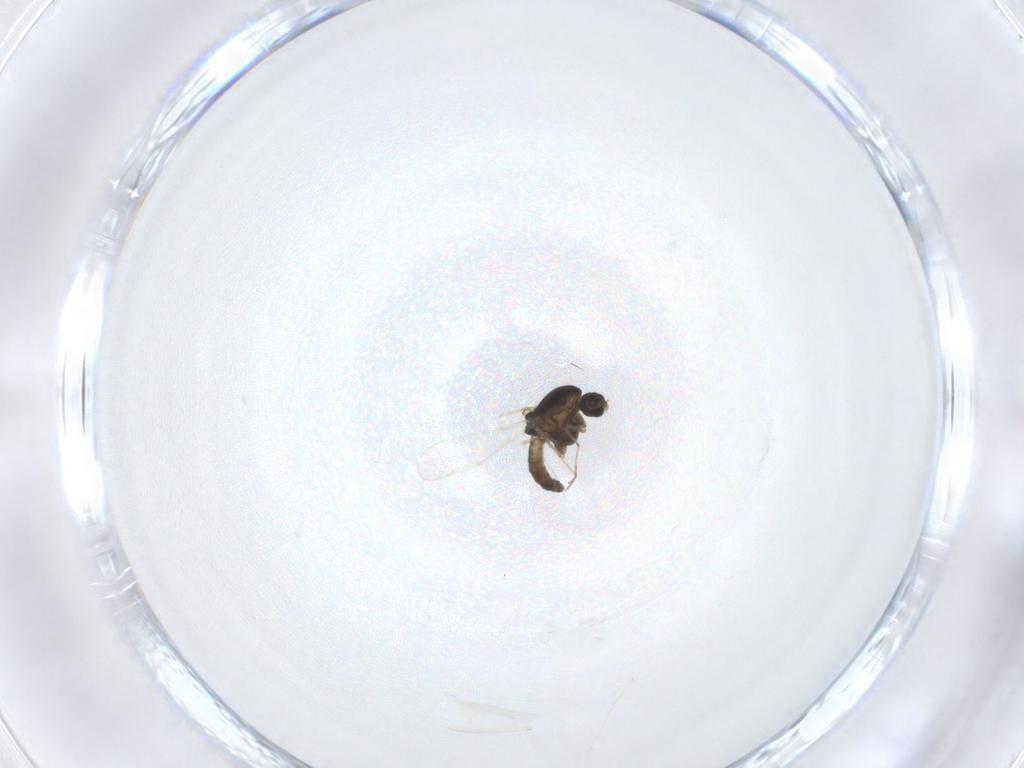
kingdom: Animalia
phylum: Arthropoda
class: Insecta
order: Diptera
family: Chironomidae
